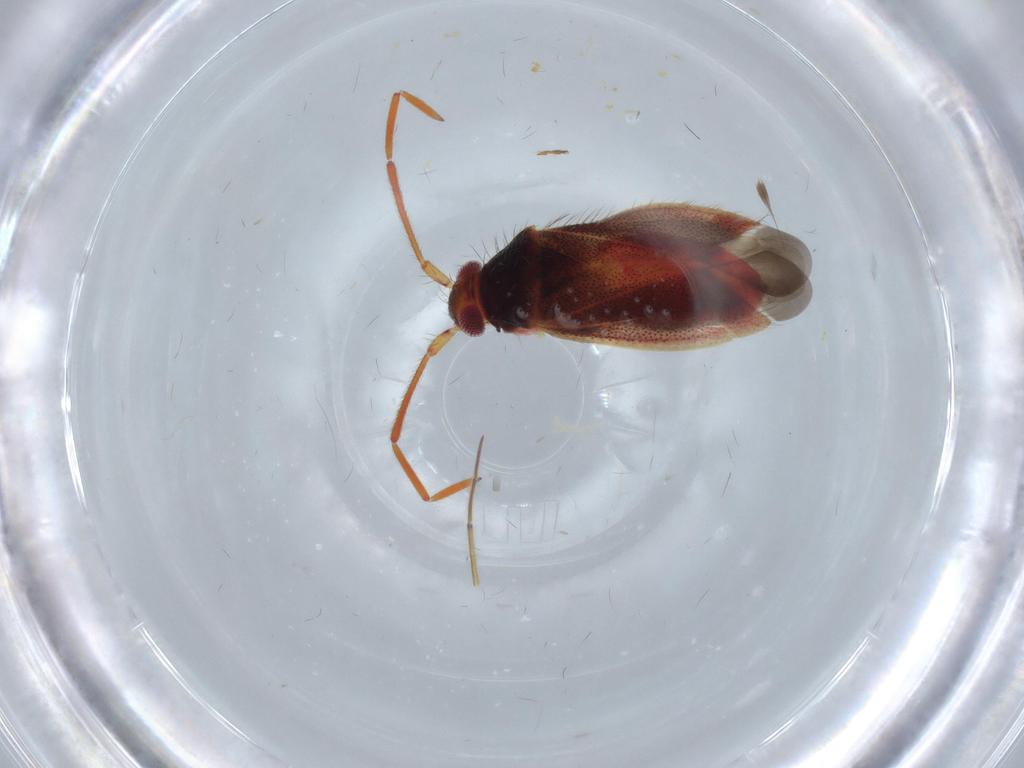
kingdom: Animalia
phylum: Arthropoda
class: Insecta
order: Hemiptera
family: Miridae
